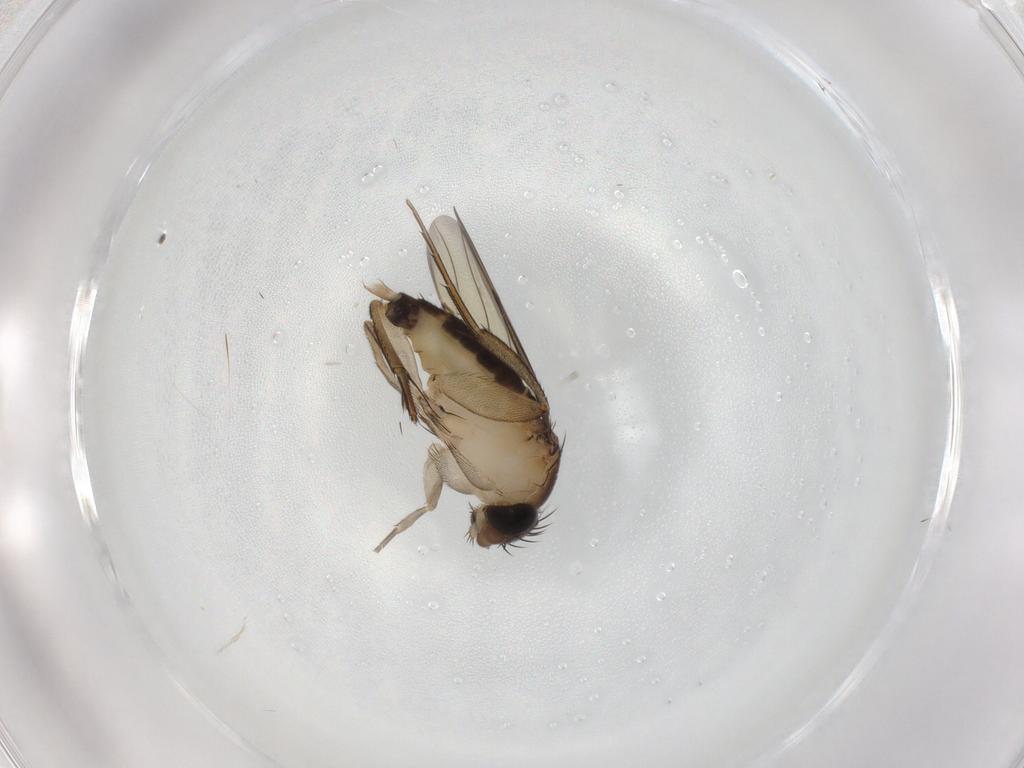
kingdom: Animalia
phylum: Arthropoda
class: Insecta
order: Diptera
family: Phoridae
